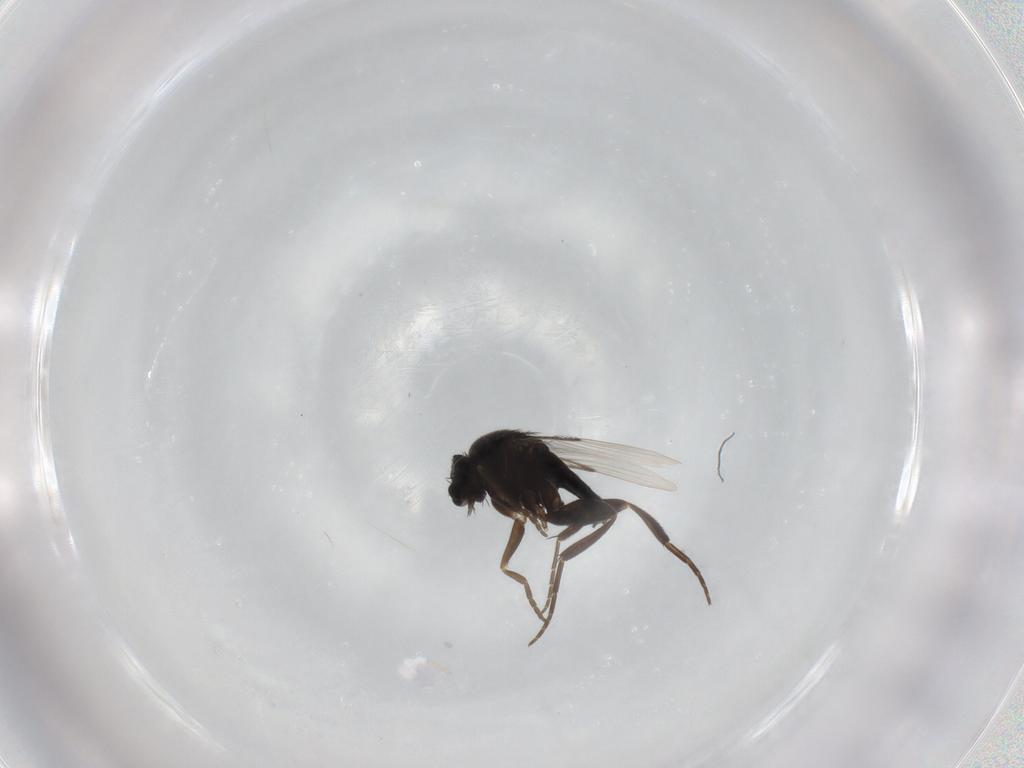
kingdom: Animalia
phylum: Arthropoda
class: Insecta
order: Diptera
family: Phoridae
